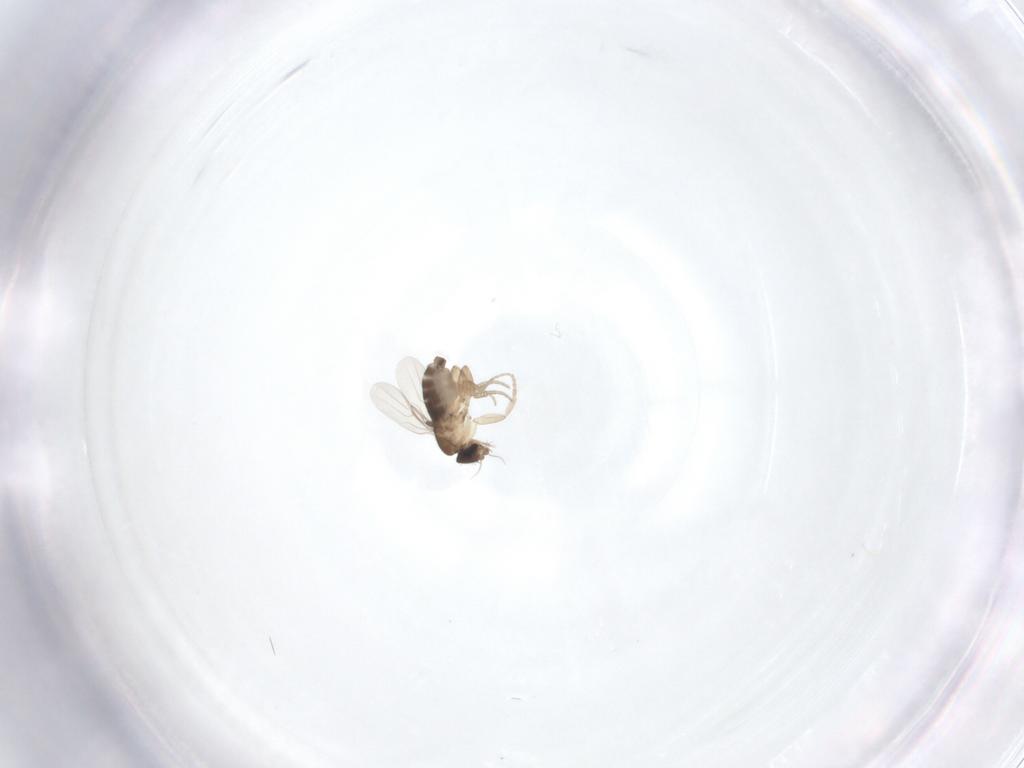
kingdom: Animalia
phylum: Arthropoda
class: Insecta
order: Diptera
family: Phoridae
